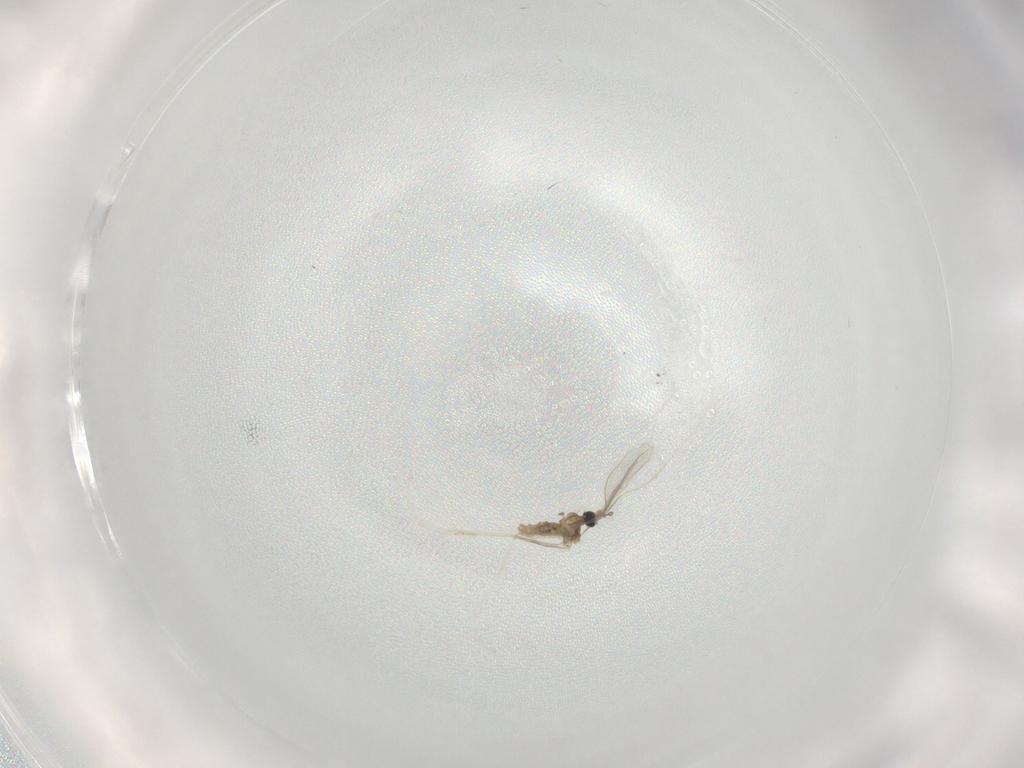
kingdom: Animalia
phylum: Arthropoda
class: Insecta
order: Diptera
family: Cecidomyiidae
